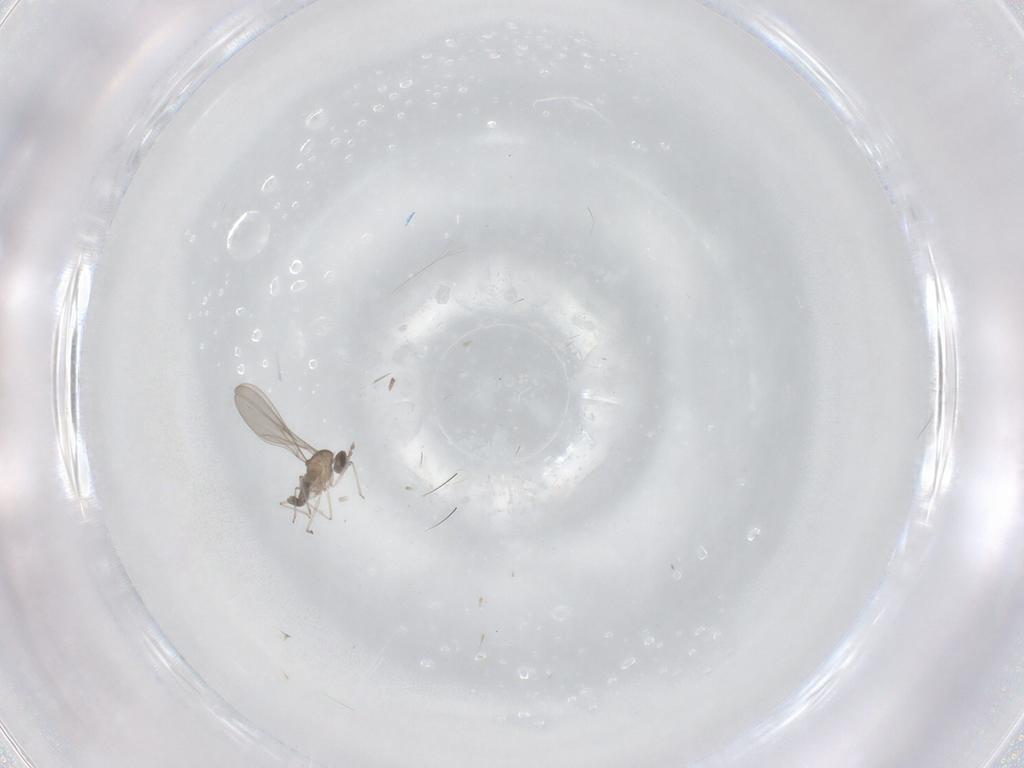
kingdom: Animalia
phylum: Arthropoda
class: Insecta
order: Diptera
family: Cecidomyiidae
